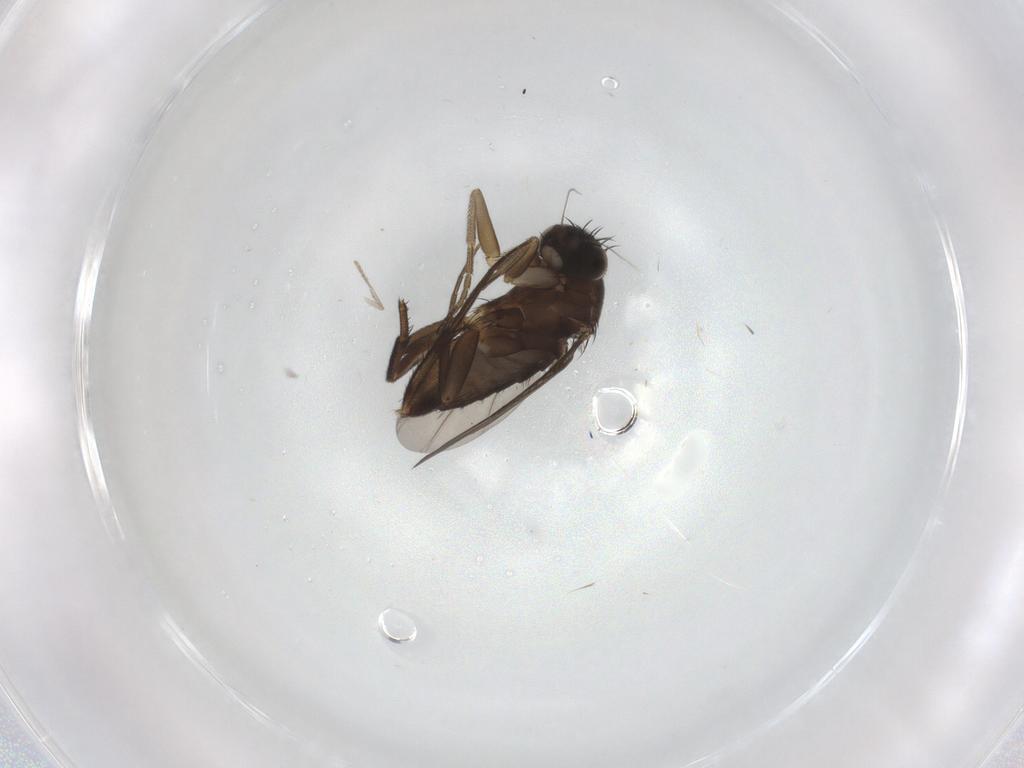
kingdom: Animalia
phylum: Arthropoda
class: Insecta
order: Diptera
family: Phoridae
